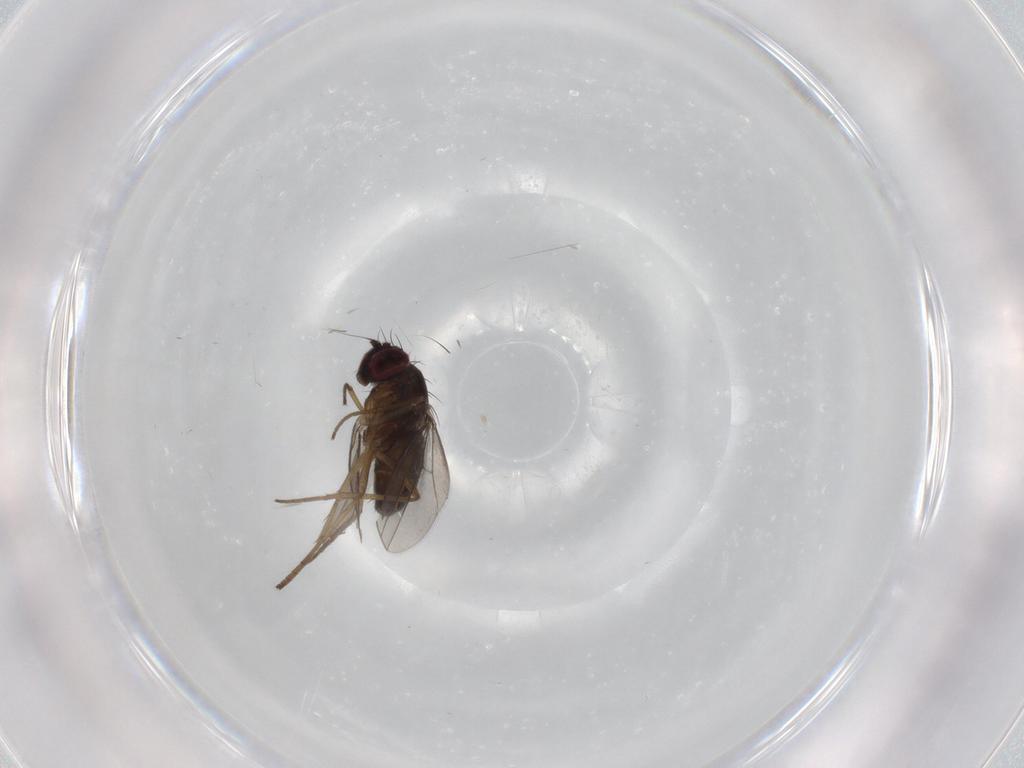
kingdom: Animalia
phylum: Arthropoda
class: Insecta
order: Diptera
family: Dolichopodidae
